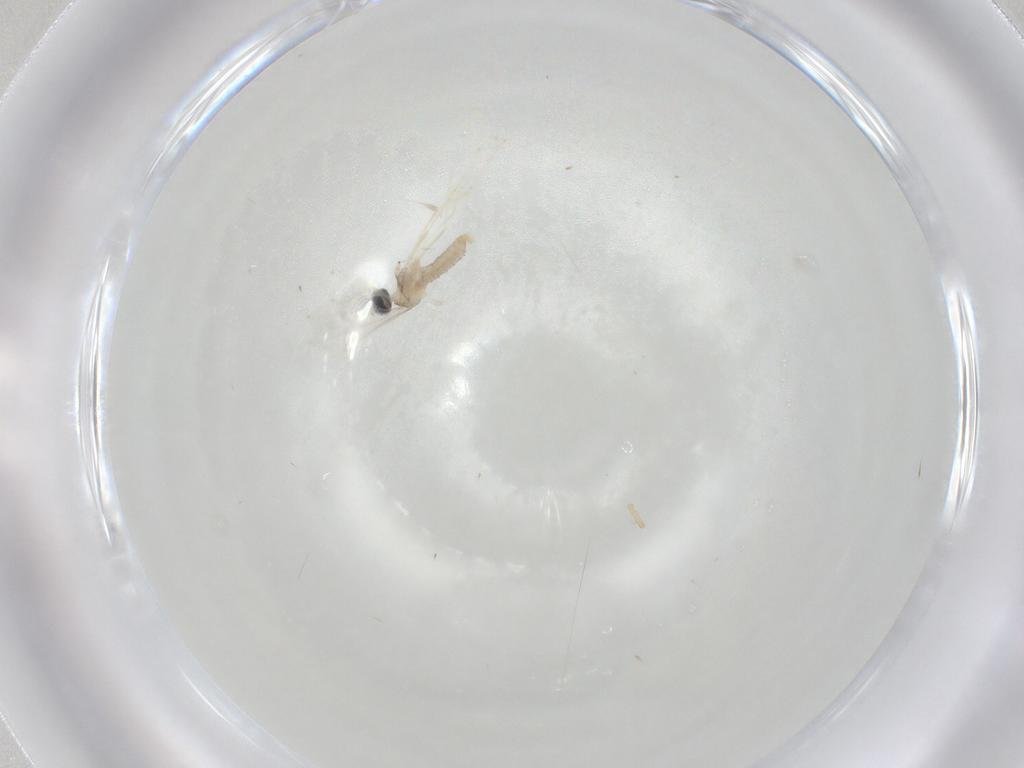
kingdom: Animalia
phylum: Arthropoda
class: Insecta
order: Diptera
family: Cecidomyiidae
